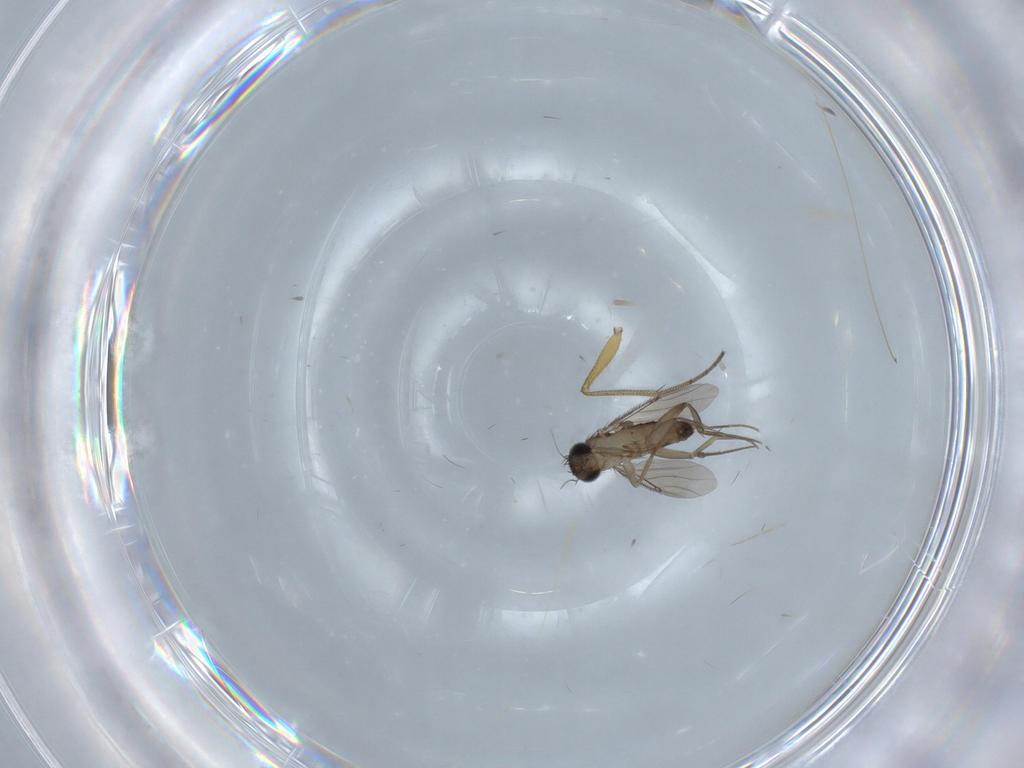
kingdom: Animalia
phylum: Arthropoda
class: Insecta
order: Diptera
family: Phoridae
